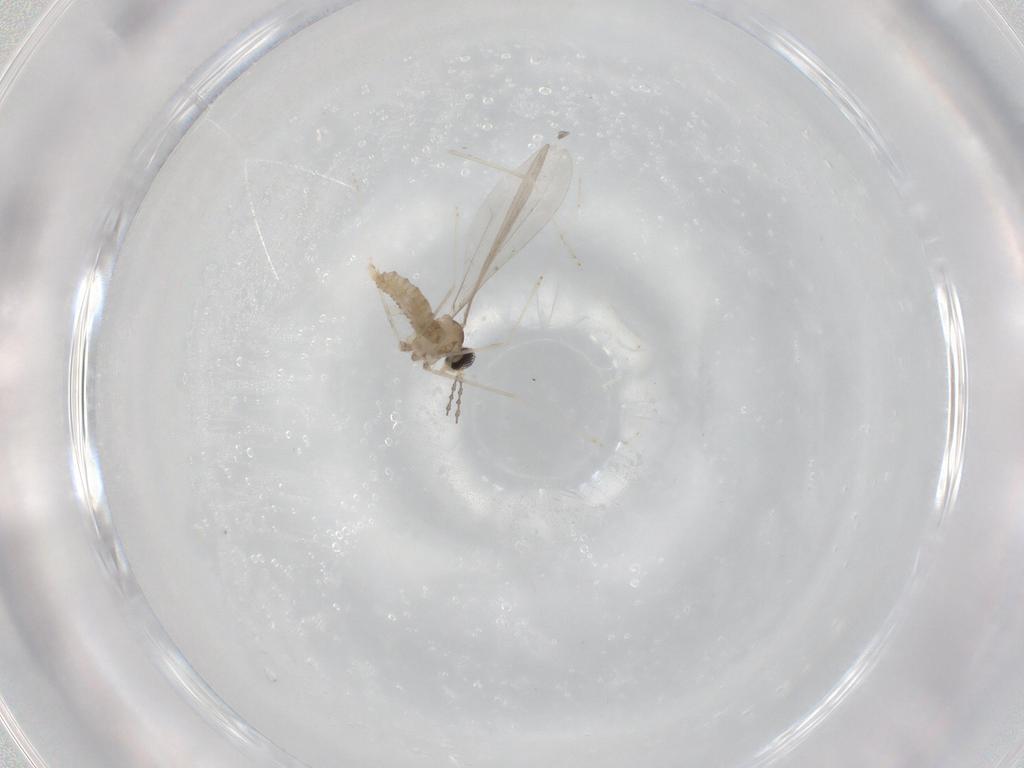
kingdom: Animalia
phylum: Arthropoda
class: Insecta
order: Diptera
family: Cecidomyiidae
